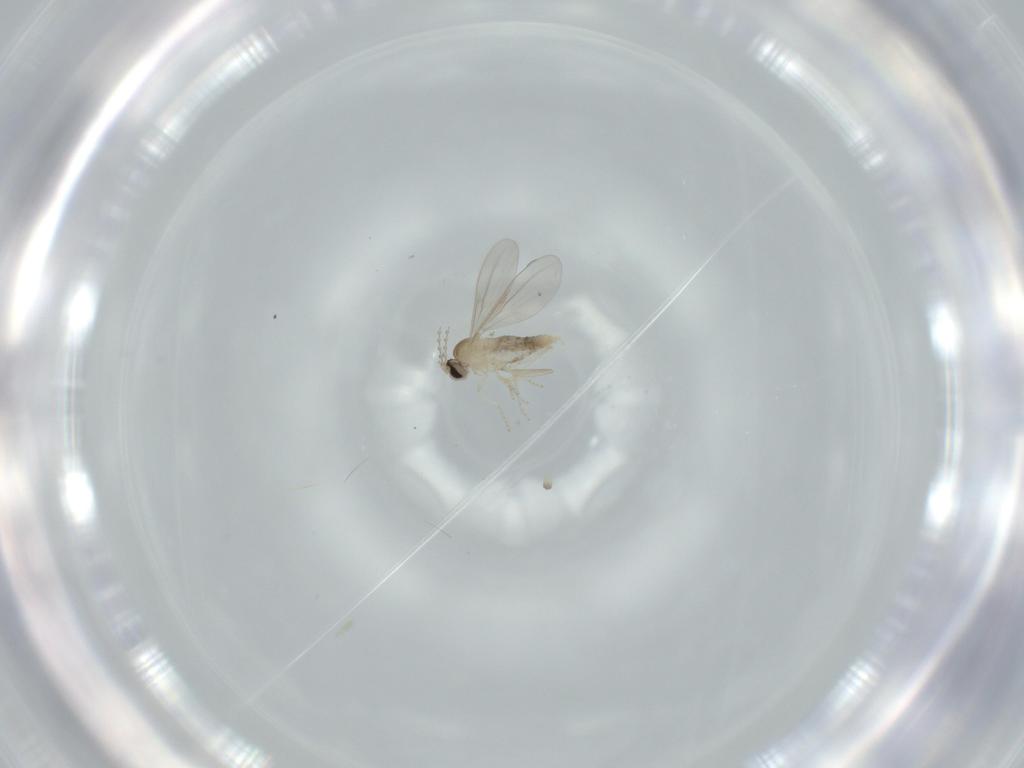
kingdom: Animalia
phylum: Arthropoda
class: Insecta
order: Diptera
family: Cecidomyiidae
